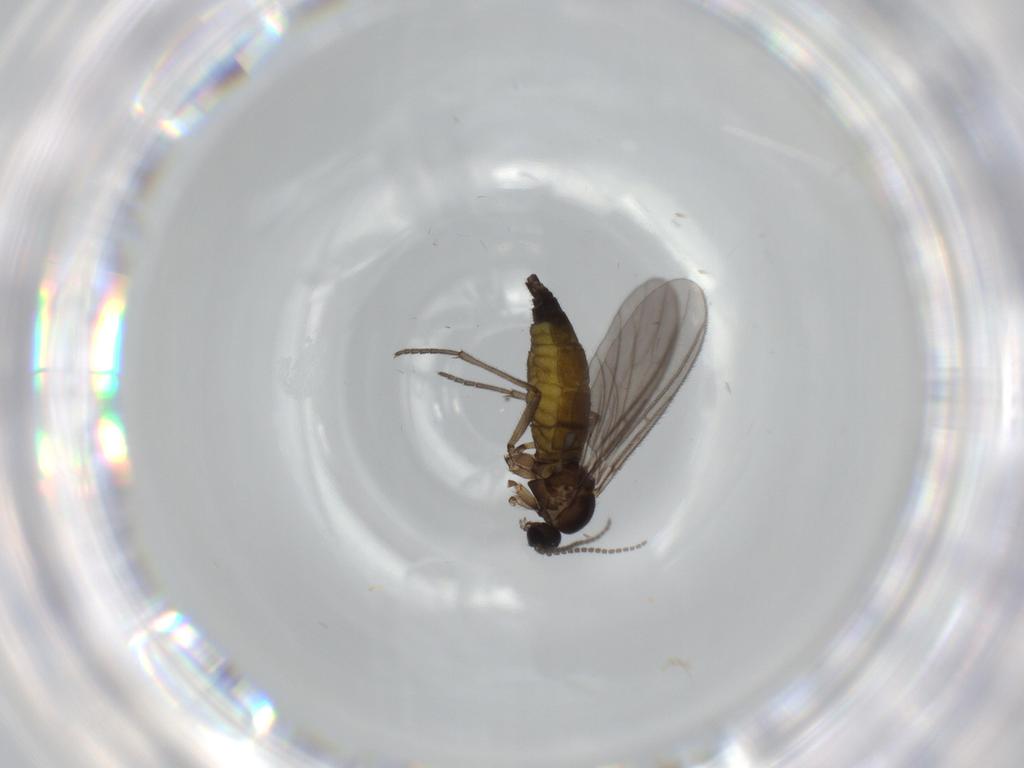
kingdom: Animalia
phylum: Arthropoda
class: Insecta
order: Diptera
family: Sciaridae
